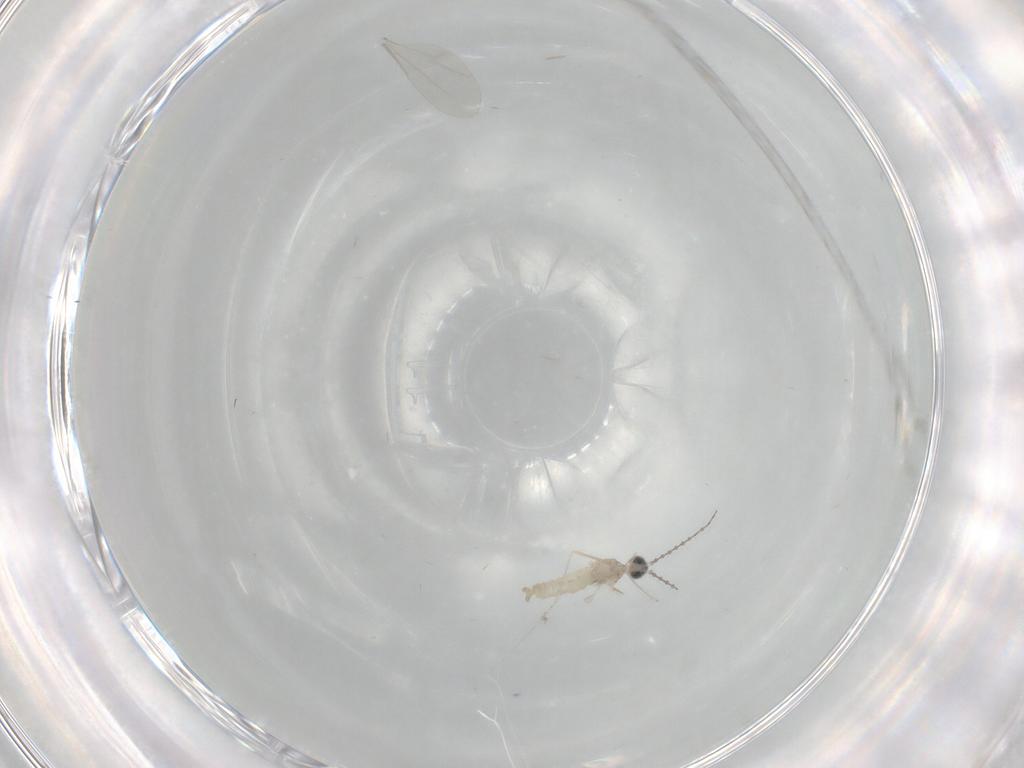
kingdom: Animalia
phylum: Arthropoda
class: Insecta
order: Diptera
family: Cecidomyiidae
